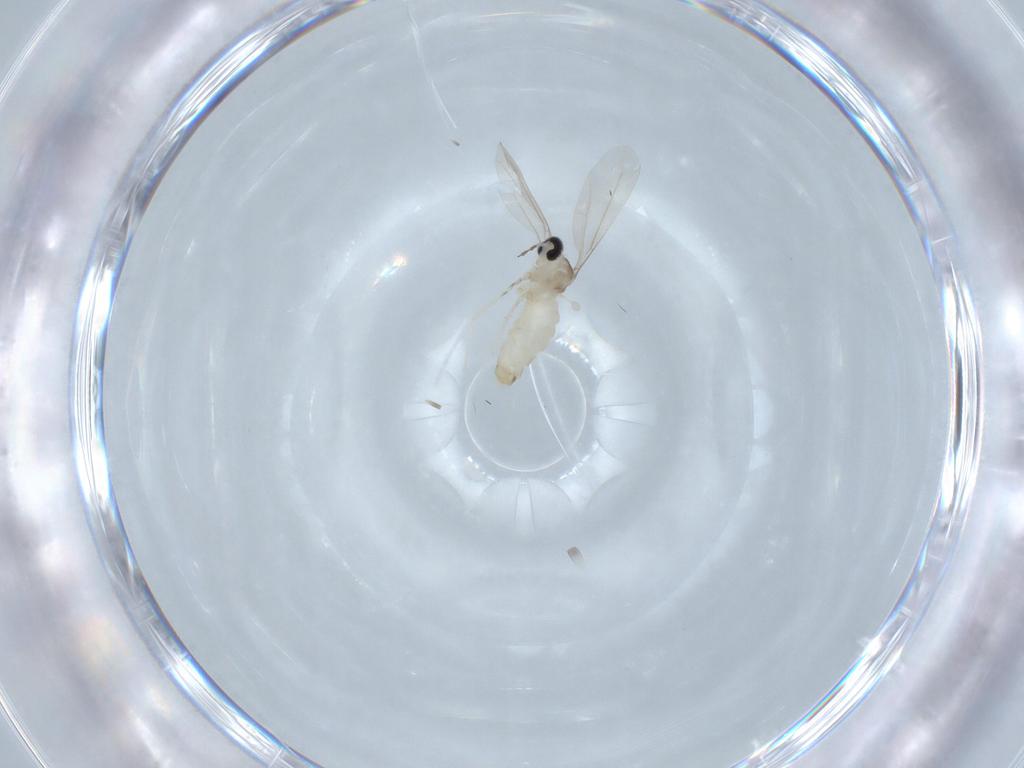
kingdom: Animalia
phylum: Arthropoda
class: Insecta
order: Diptera
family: Cecidomyiidae
